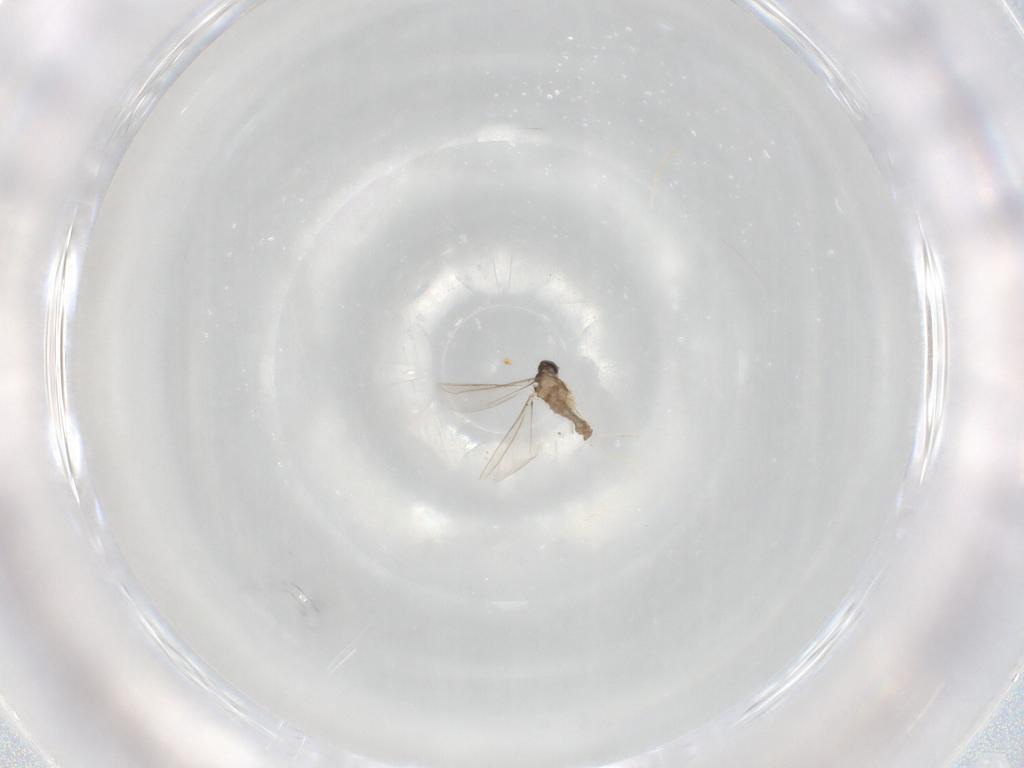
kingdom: Animalia
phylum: Arthropoda
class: Insecta
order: Diptera
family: Cecidomyiidae
